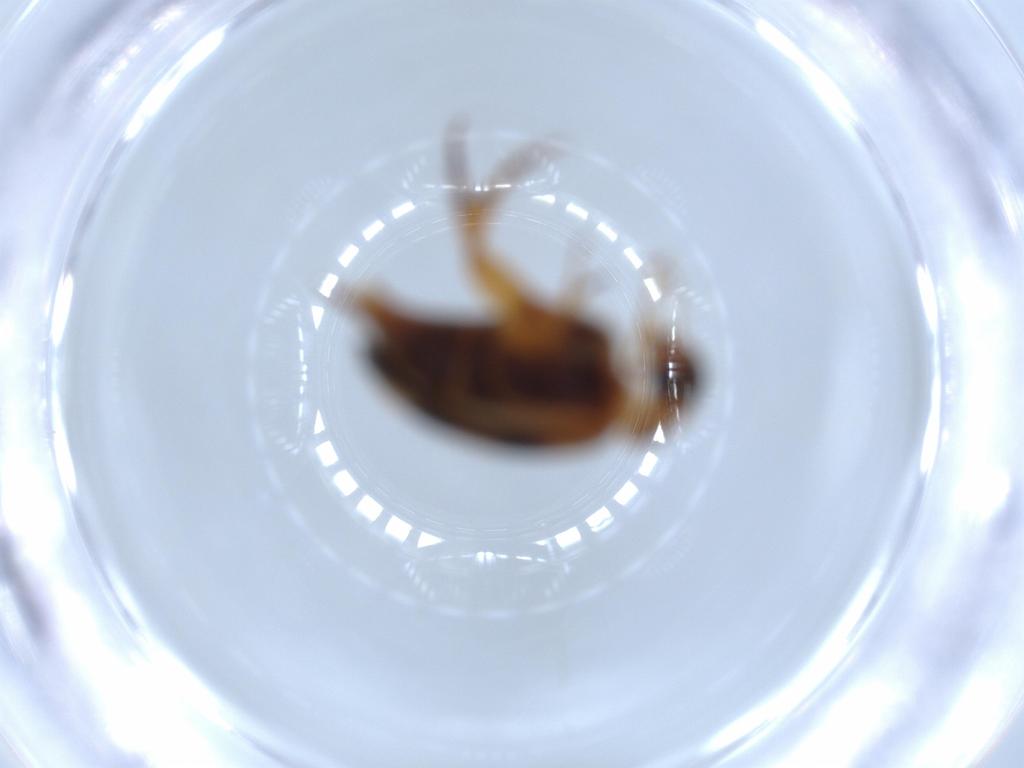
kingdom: Animalia
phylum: Arthropoda
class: Insecta
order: Coleoptera
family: Mordellidae
